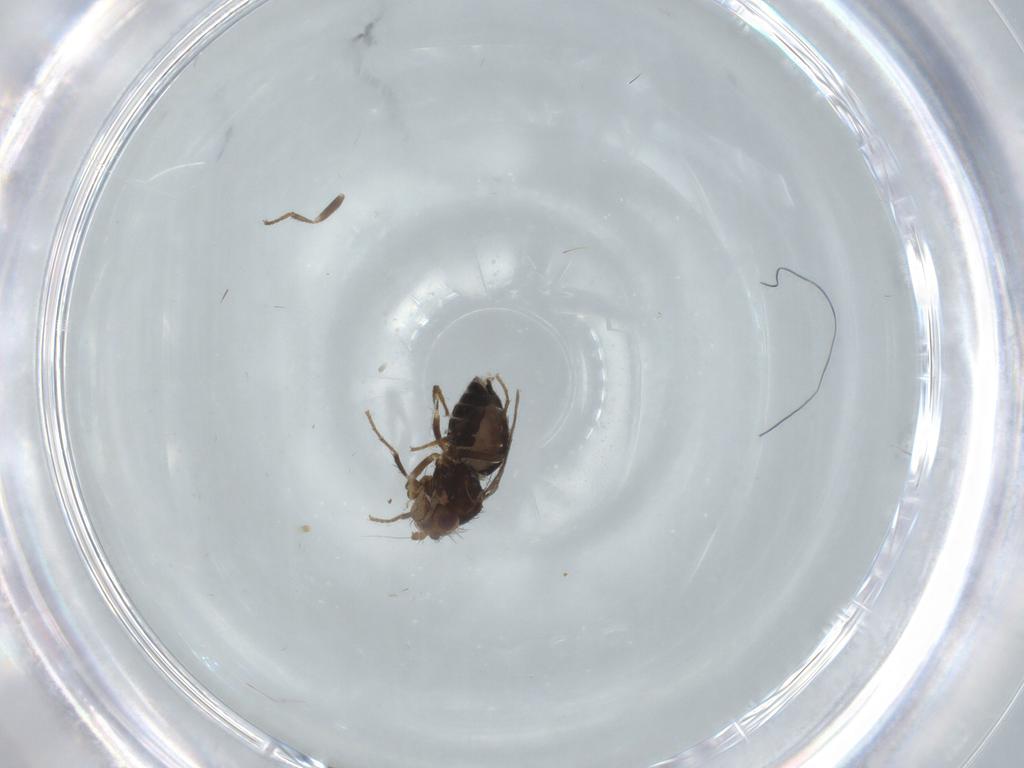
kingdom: Animalia
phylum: Arthropoda
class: Insecta
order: Diptera
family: Sphaeroceridae
